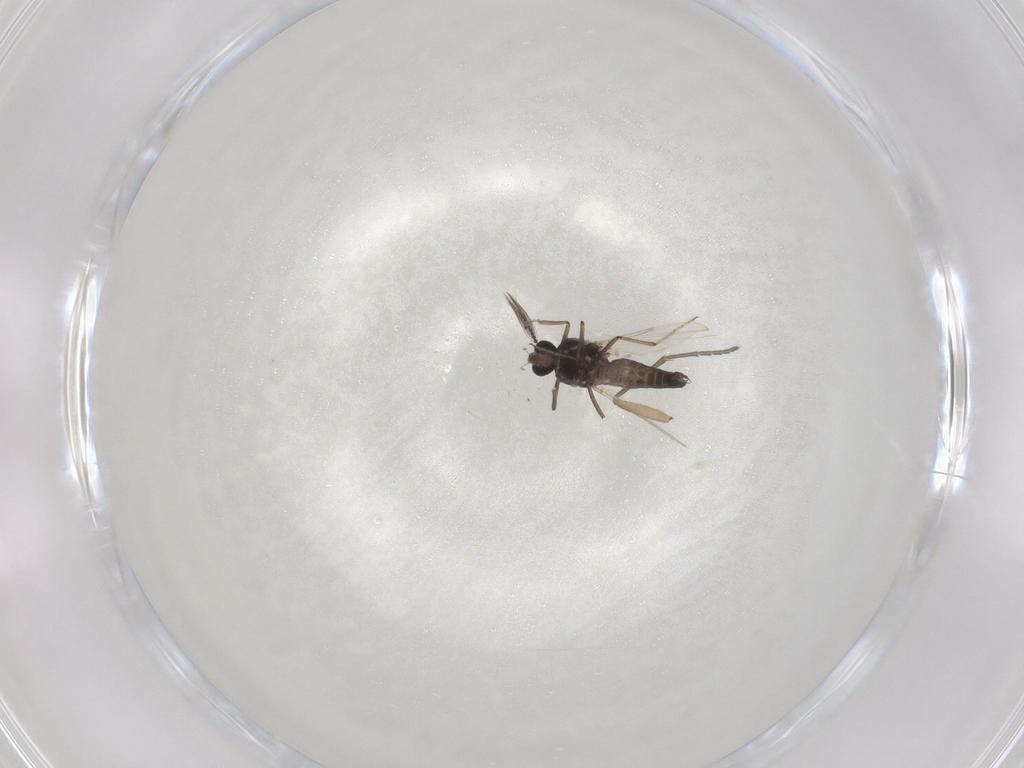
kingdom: Animalia
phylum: Arthropoda
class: Insecta
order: Diptera
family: Ceratopogonidae
